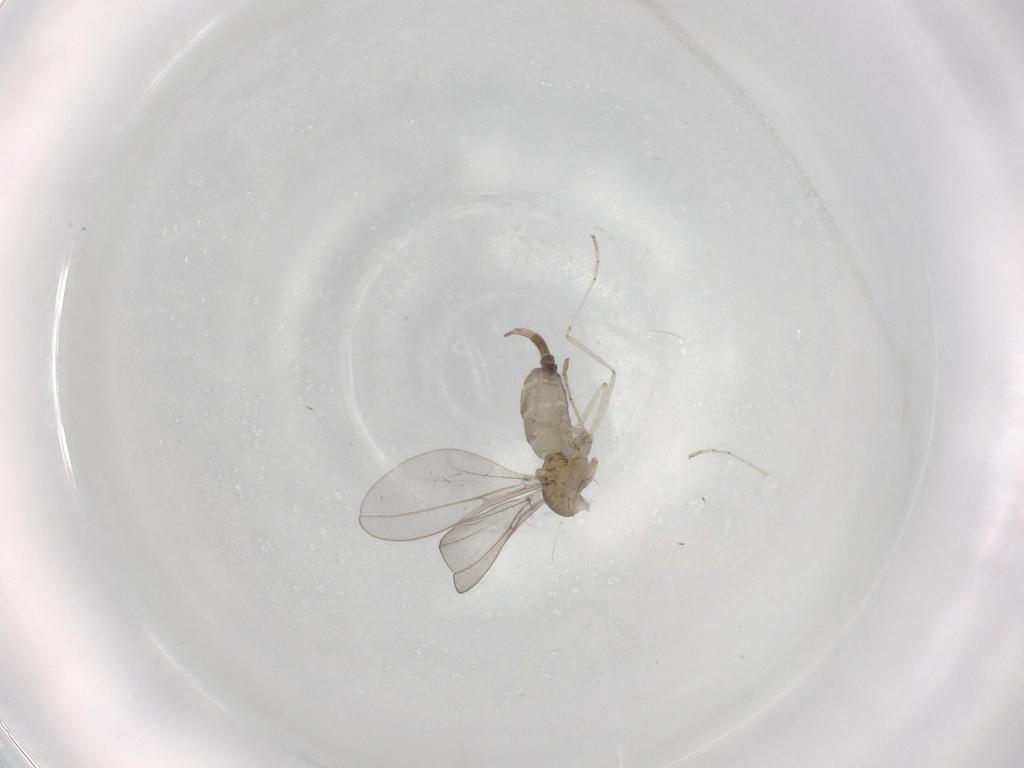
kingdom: Animalia
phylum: Arthropoda
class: Insecta
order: Diptera
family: Cecidomyiidae
